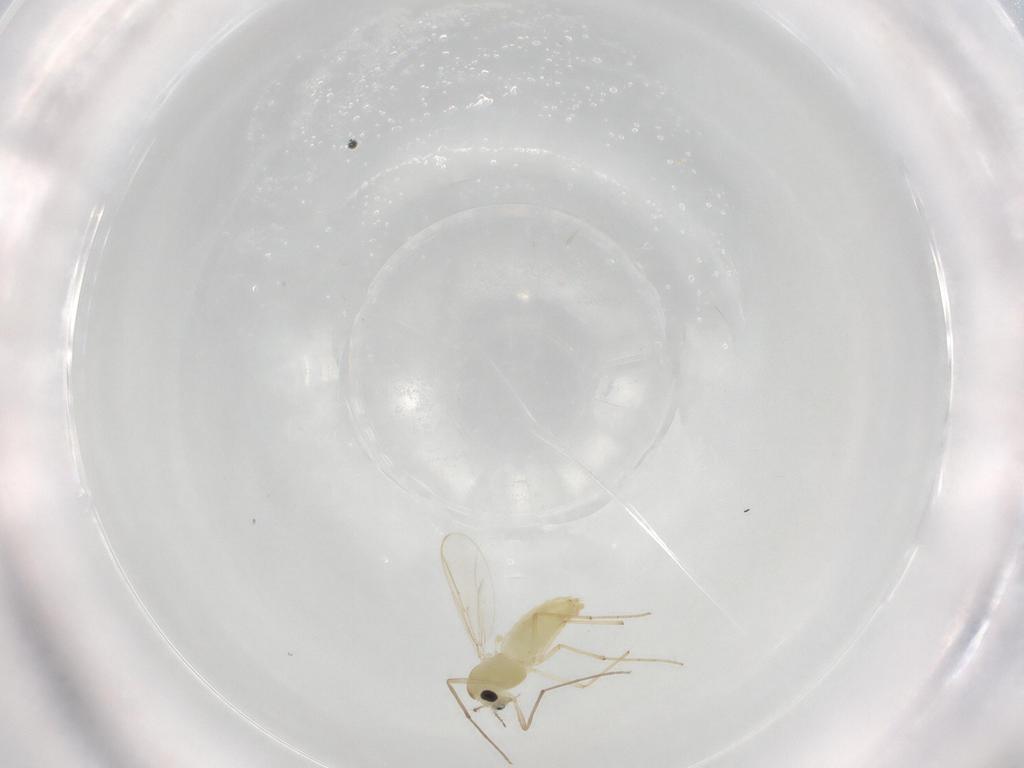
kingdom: Animalia
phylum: Arthropoda
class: Insecta
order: Diptera
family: Chironomidae
